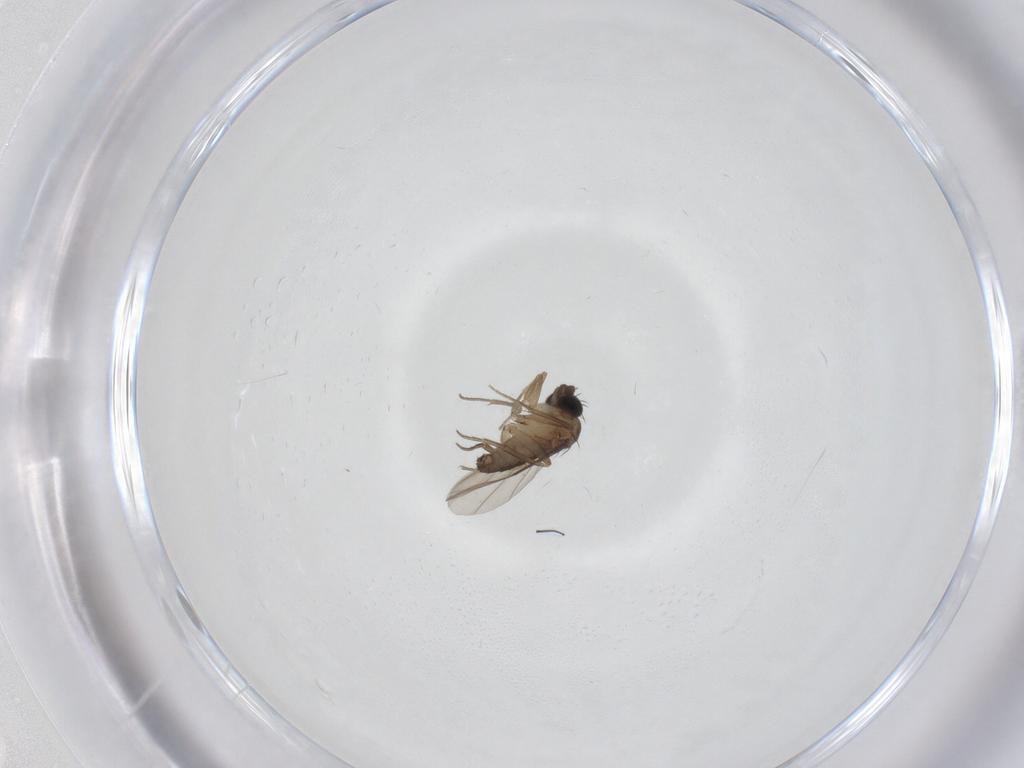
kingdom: Animalia
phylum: Arthropoda
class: Insecta
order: Diptera
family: Phoridae
